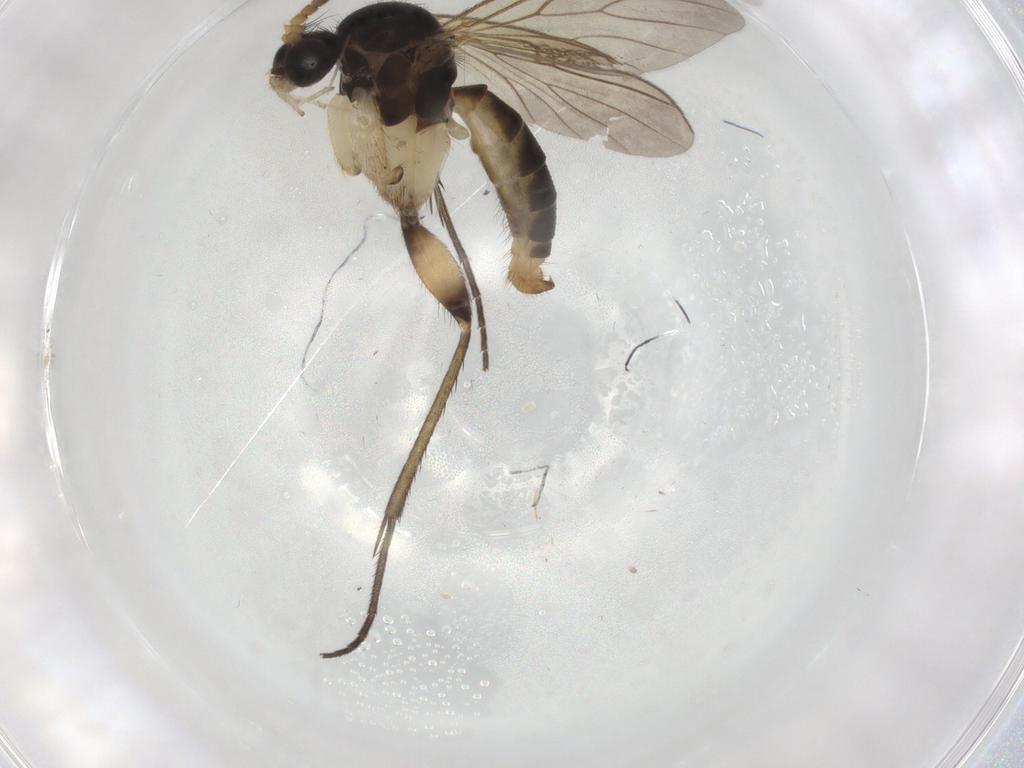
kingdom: Animalia
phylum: Arthropoda
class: Insecta
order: Diptera
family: Mycetophilidae
